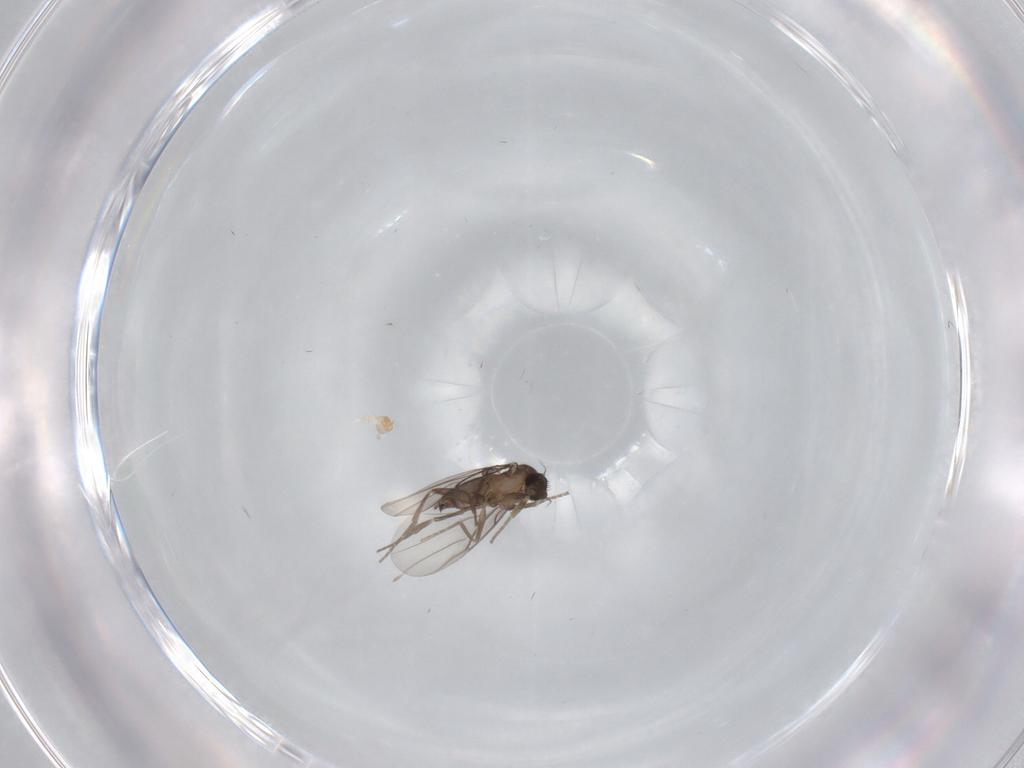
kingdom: Animalia
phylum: Arthropoda
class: Insecta
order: Diptera
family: Cecidomyiidae
